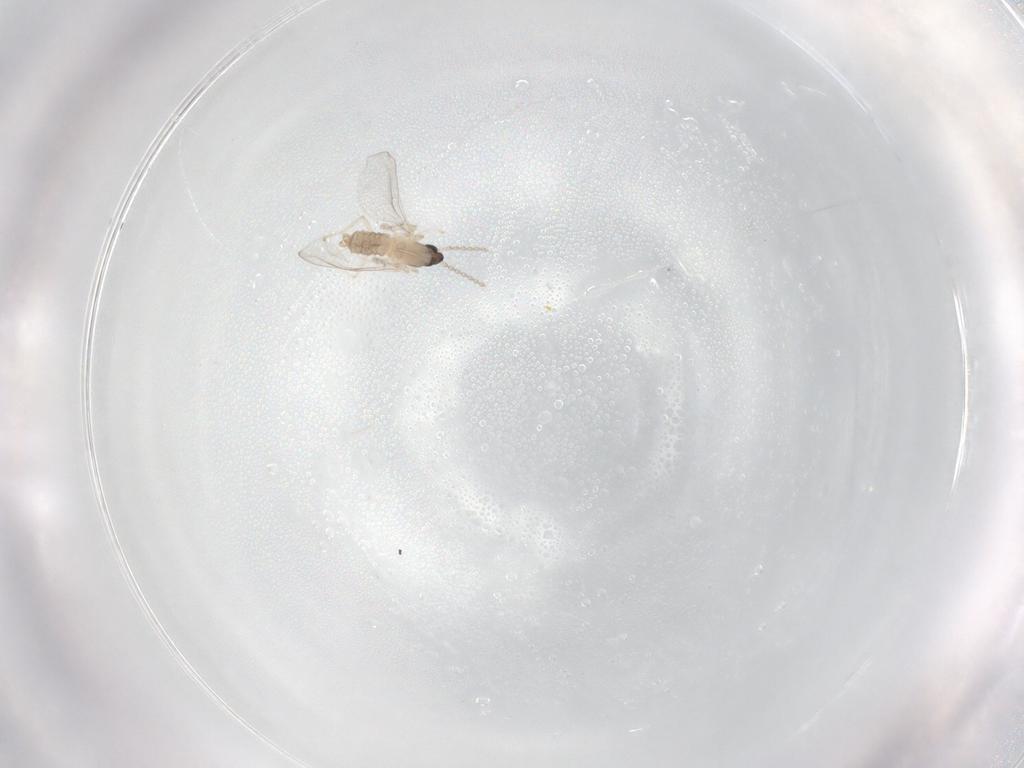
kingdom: Animalia
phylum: Arthropoda
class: Insecta
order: Diptera
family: Cecidomyiidae
